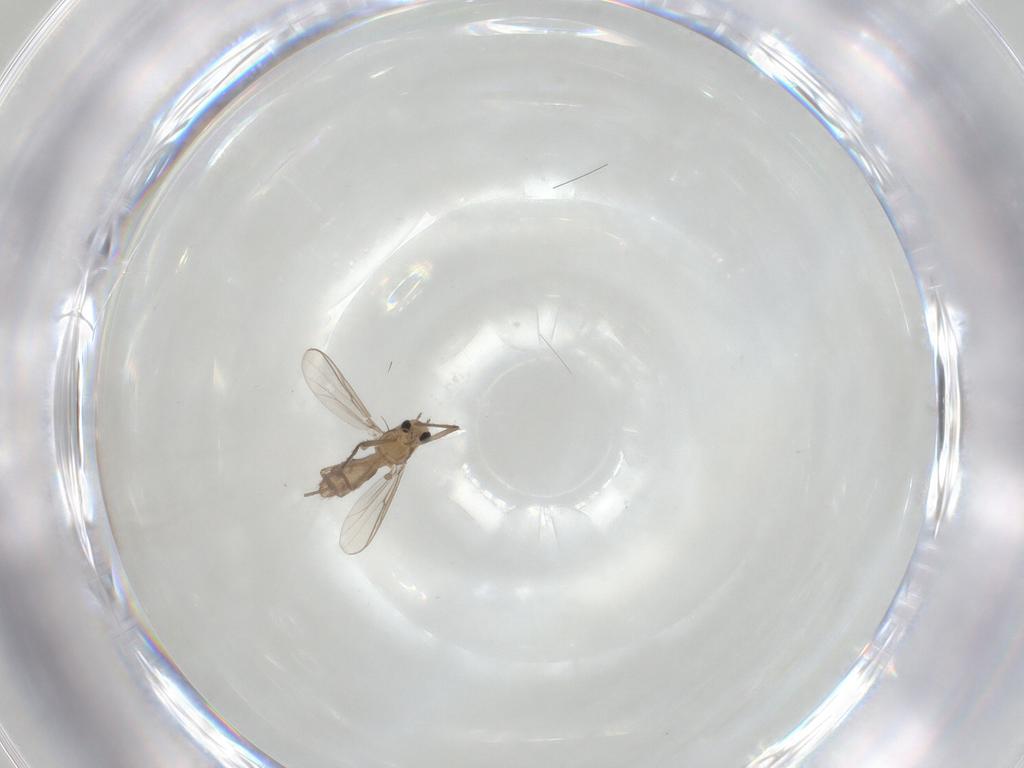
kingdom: Animalia
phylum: Arthropoda
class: Insecta
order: Diptera
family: Chironomidae
